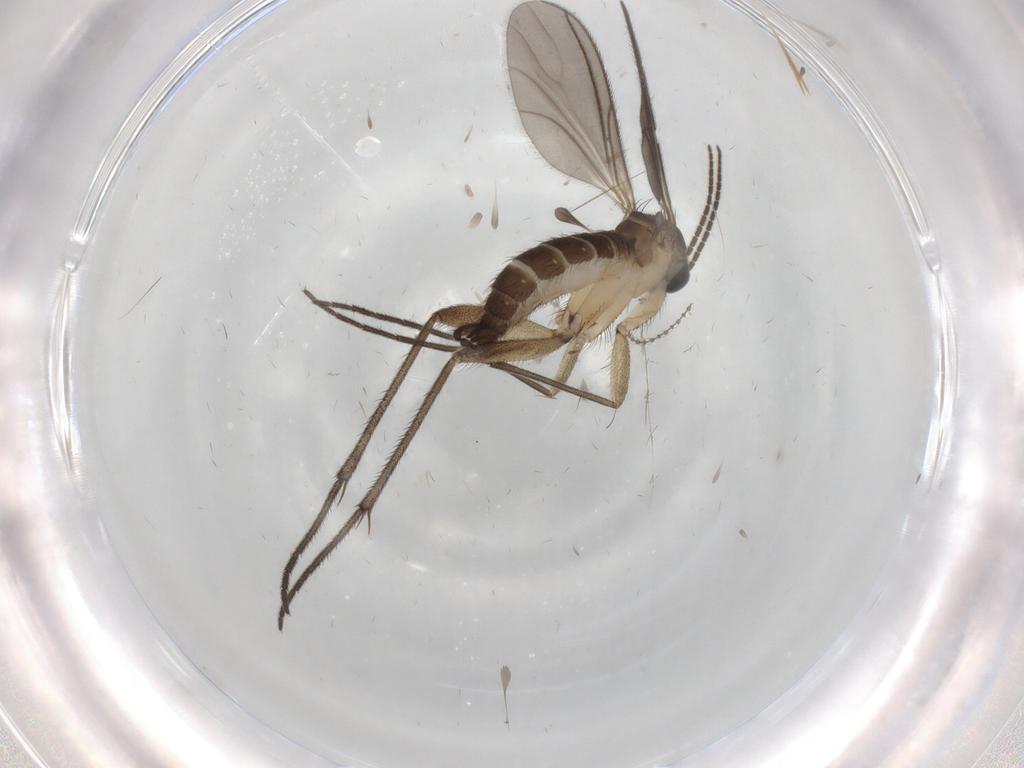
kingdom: Animalia
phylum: Arthropoda
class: Insecta
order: Diptera
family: Sciaridae
